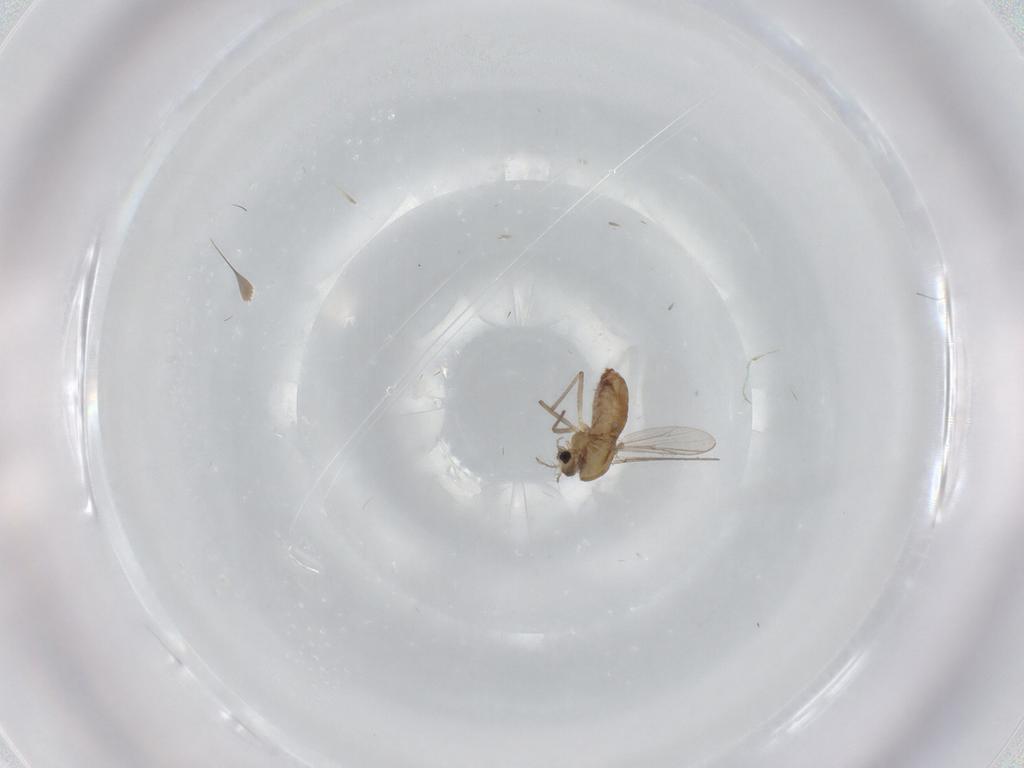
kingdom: Animalia
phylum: Arthropoda
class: Insecta
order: Diptera
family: Chironomidae
